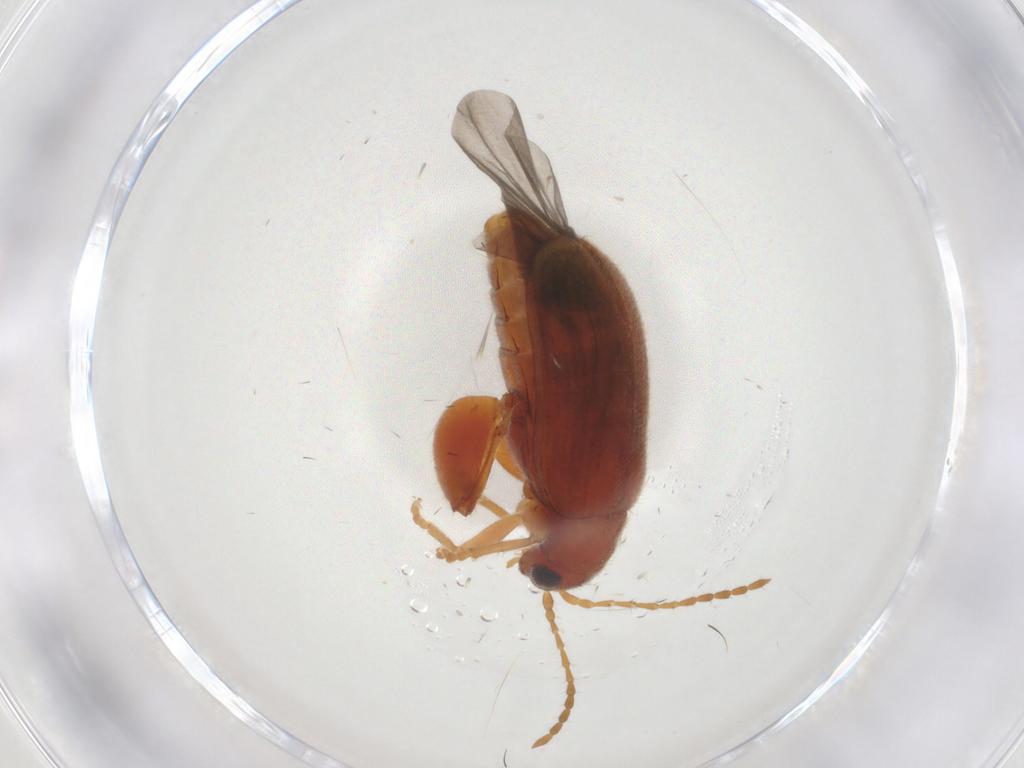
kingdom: Animalia
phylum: Arthropoda
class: Insecta
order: Coleoptera
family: Chrysomelidae
